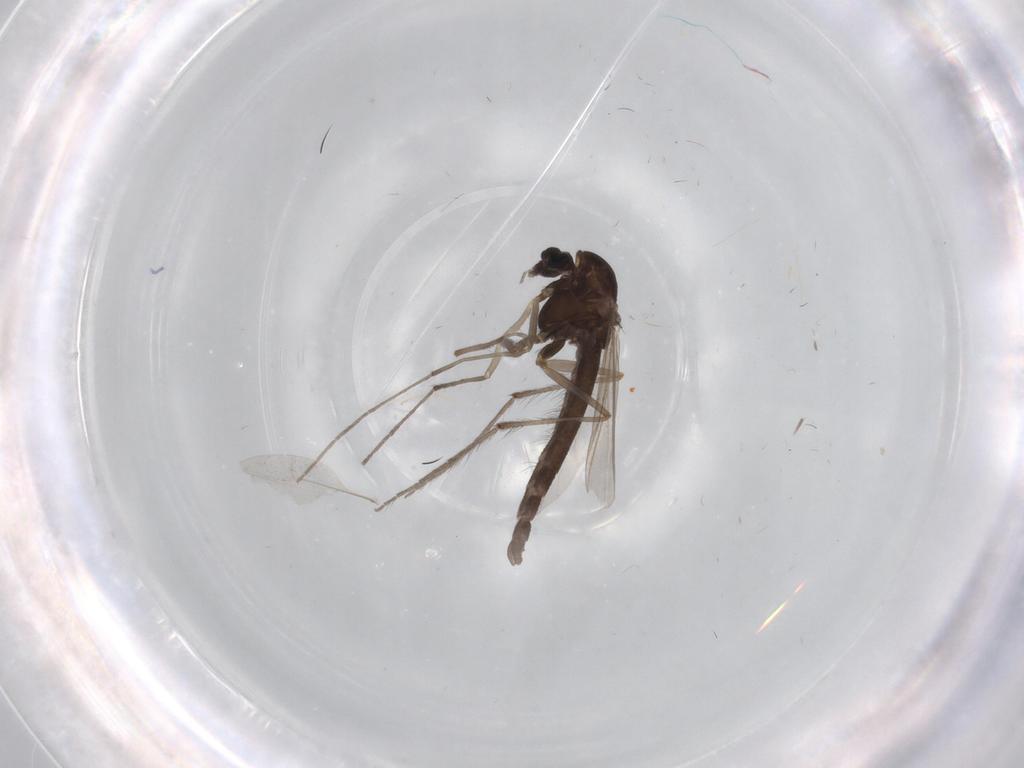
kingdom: Animalia
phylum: Arthropoda
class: Insecta
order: Diptera
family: Chironomidae
